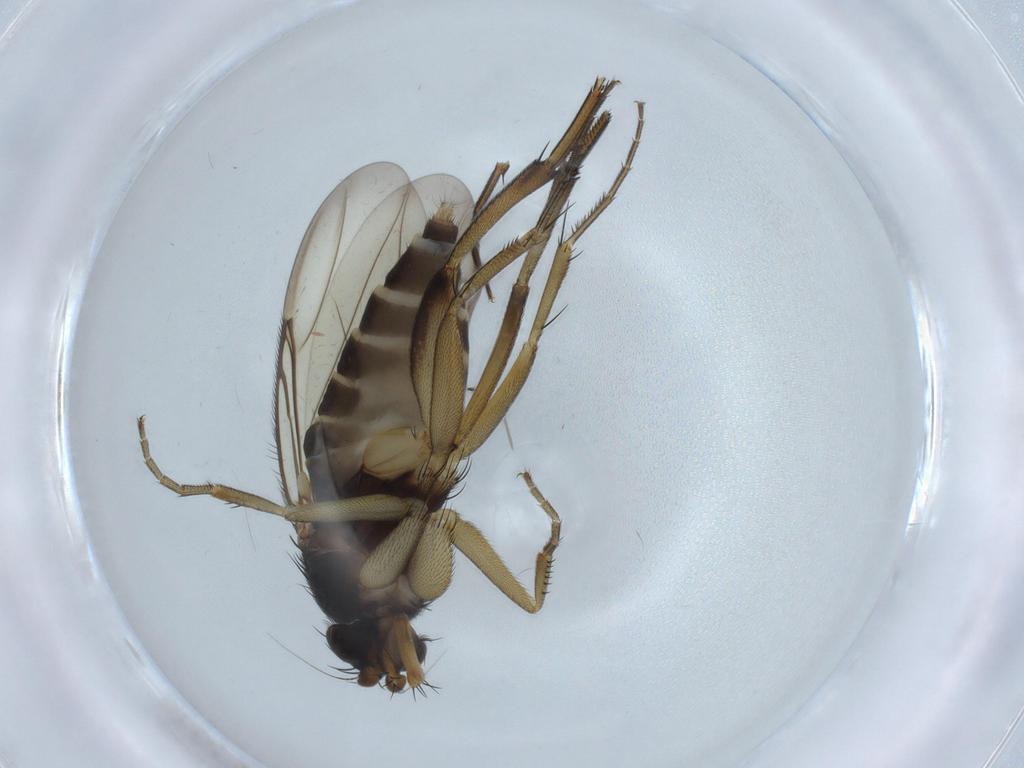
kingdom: Animalia
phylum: Arthropoda
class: Insecta
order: Diptera
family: Phoridae
